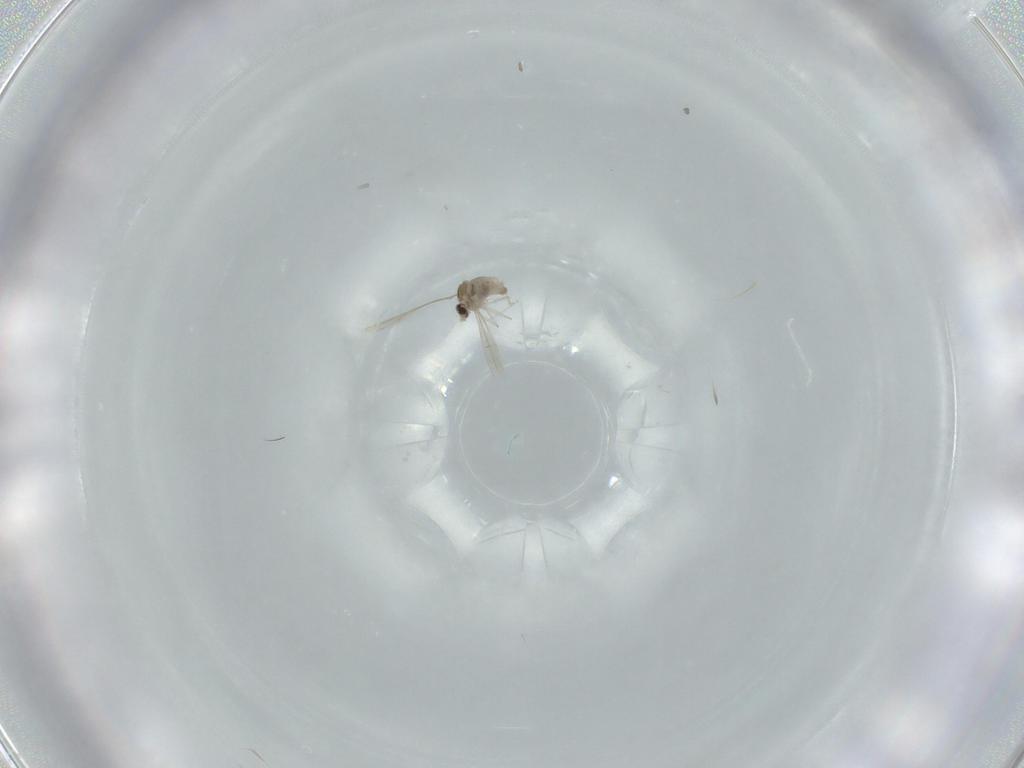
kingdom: Animalia
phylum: Arthropoda
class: Insecta
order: Diptera
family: Cecidomyiidae
